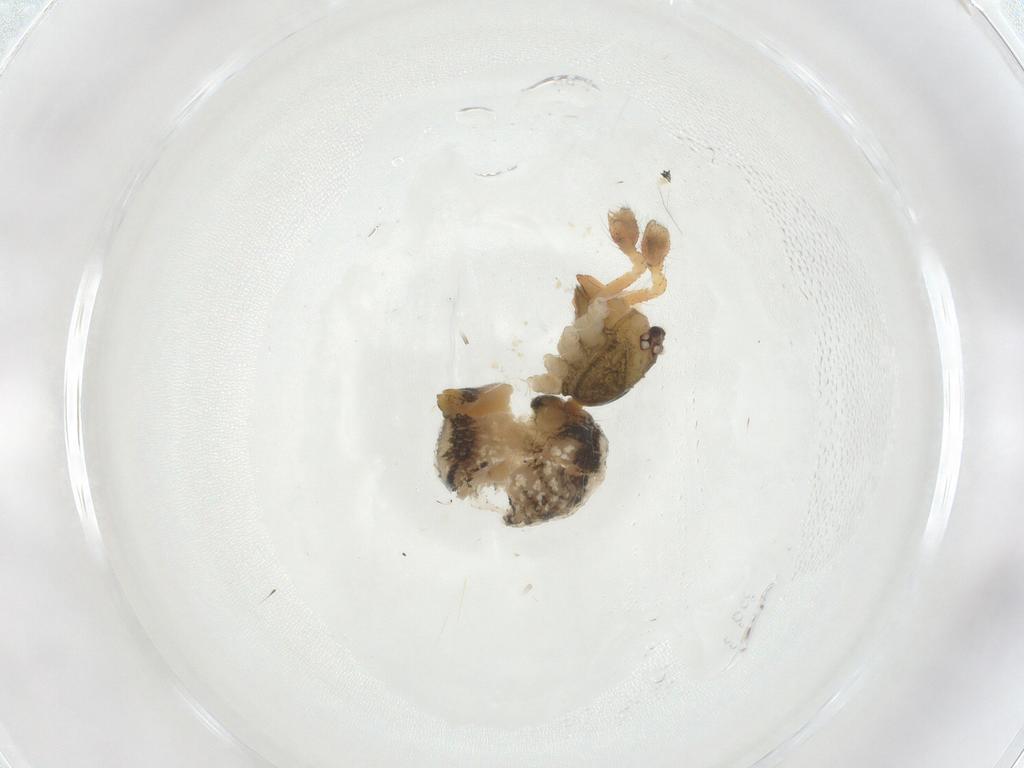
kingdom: Animalia
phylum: Arthropoda
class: Arachnida
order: Araneae
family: Theridiidae
